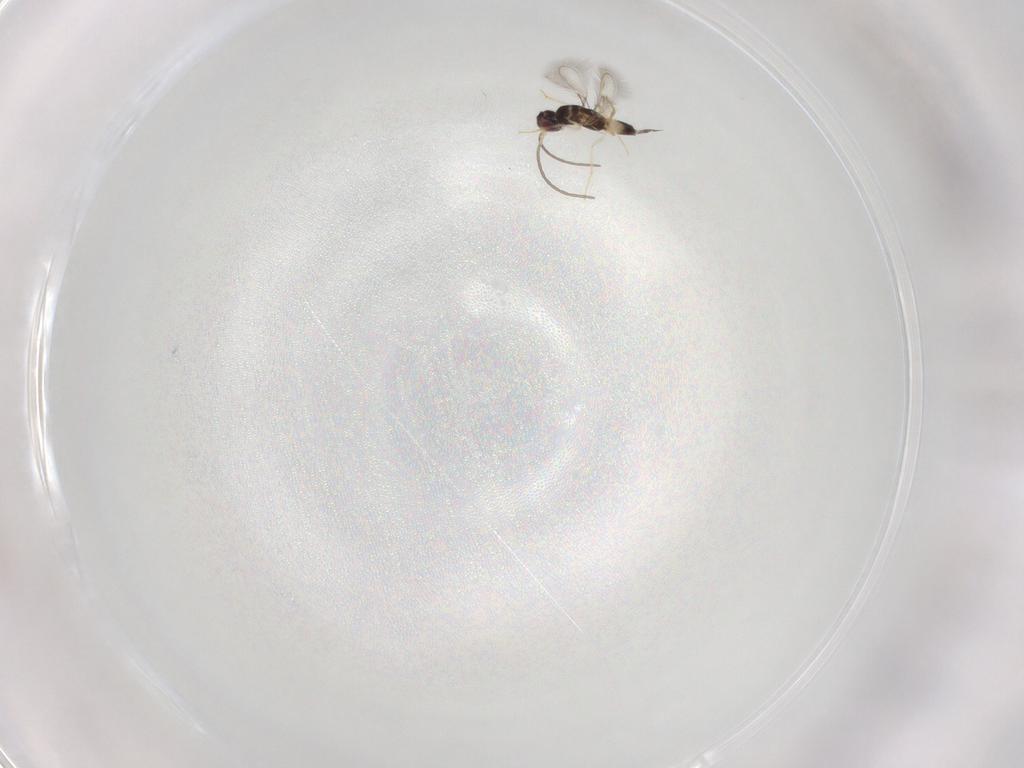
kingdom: Animalia
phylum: Arthropoda
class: Insecta
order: Hymenoptera
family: Mymaridae
